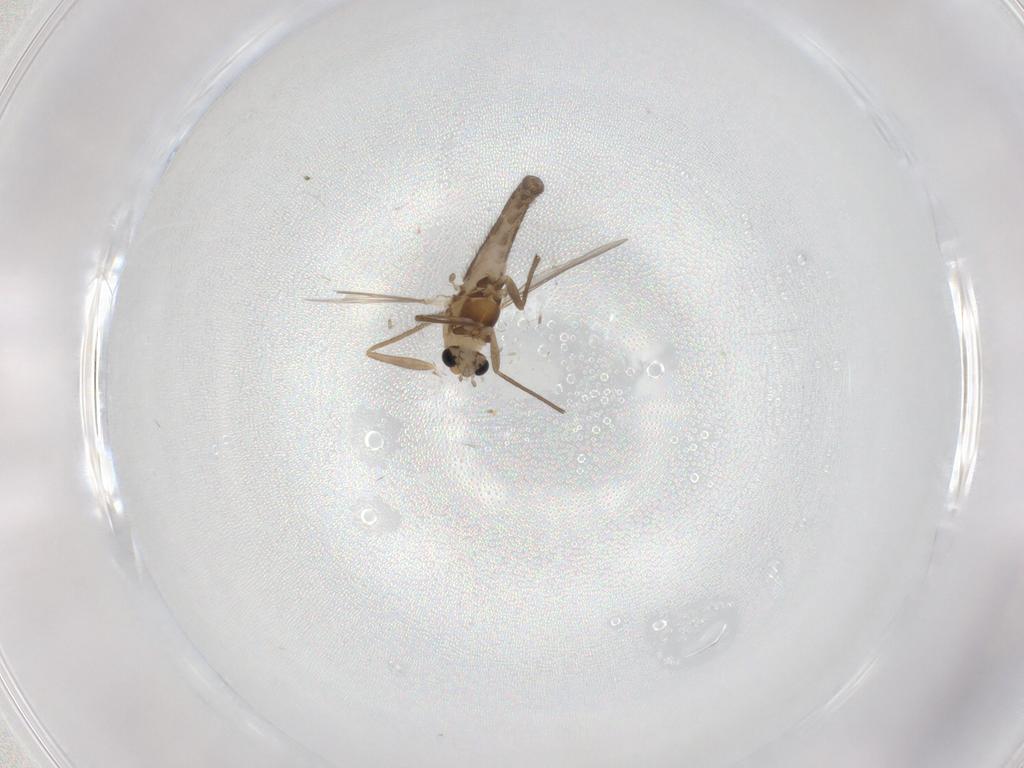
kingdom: Animalia
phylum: Arthropoda
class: Insecta
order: Diptera
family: Chironomidae
